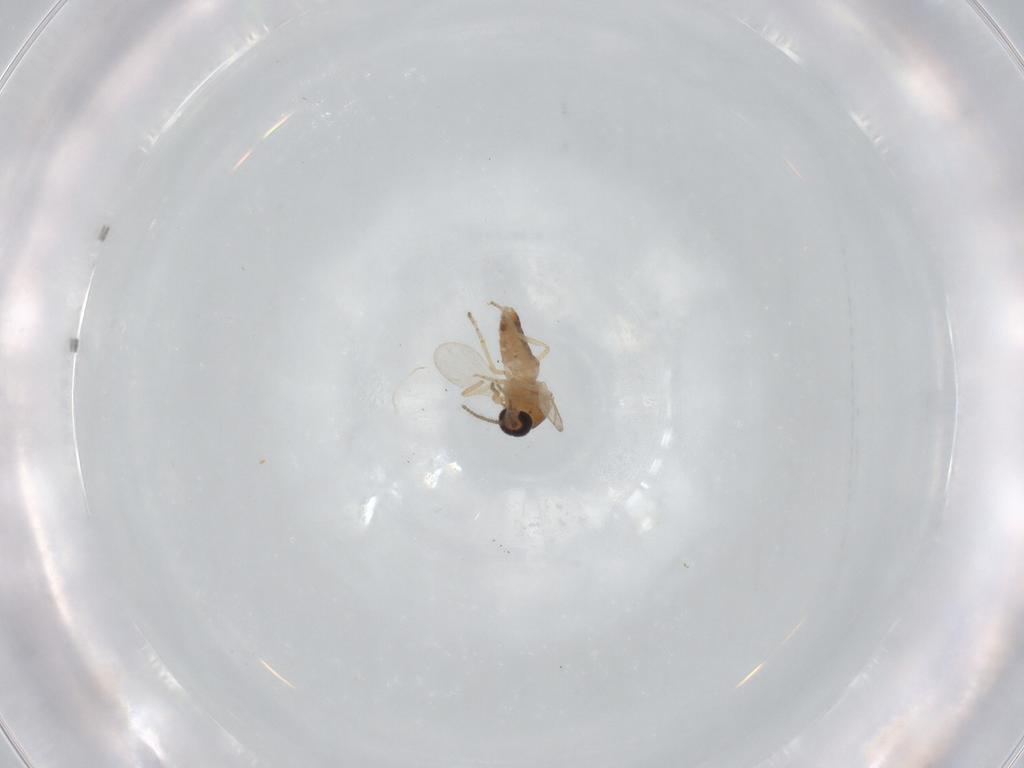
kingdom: Animalia
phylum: Arthropoda
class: Insecta
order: Diptera
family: Ceratopogonidae
